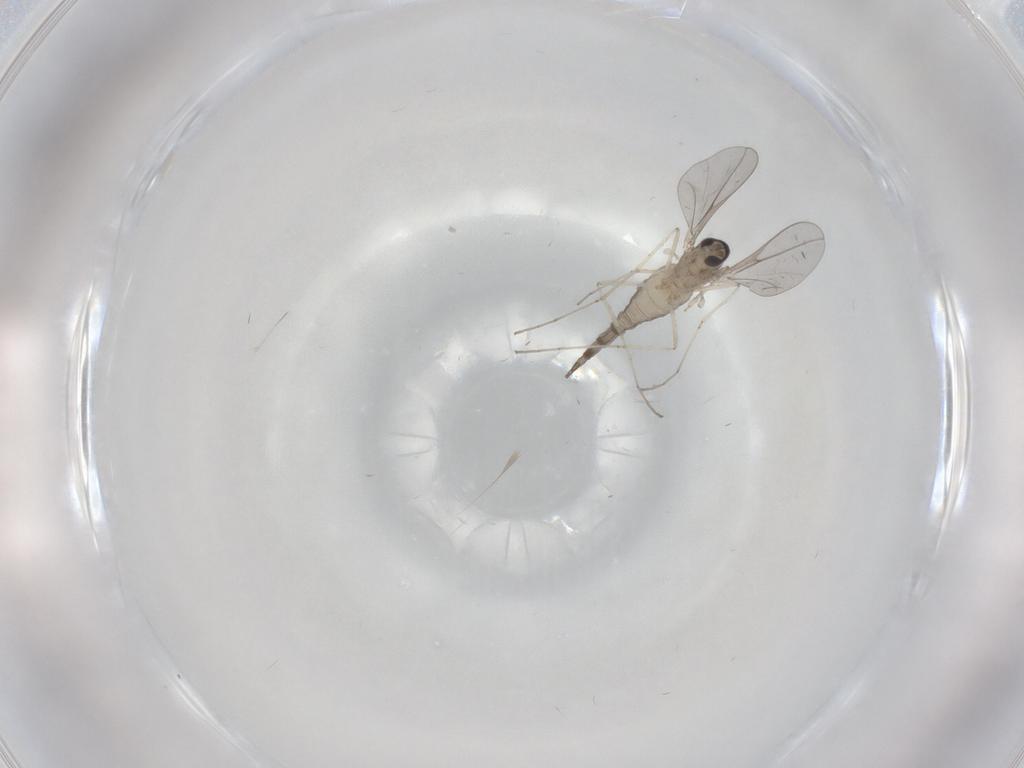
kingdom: Animalia
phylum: Arthropoda
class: Insecta
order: Diptera
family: Cecidomyiidae
